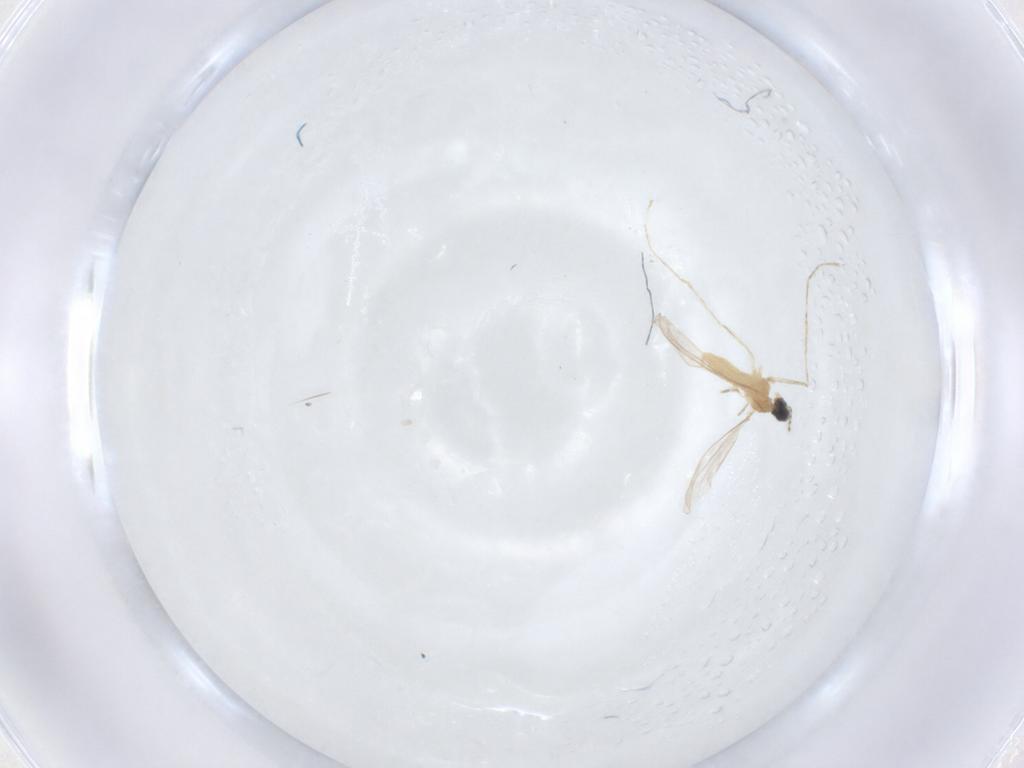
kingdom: Animalia
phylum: Arthropoda
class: Insecta
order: Diptera
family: Cecidomyiidae
